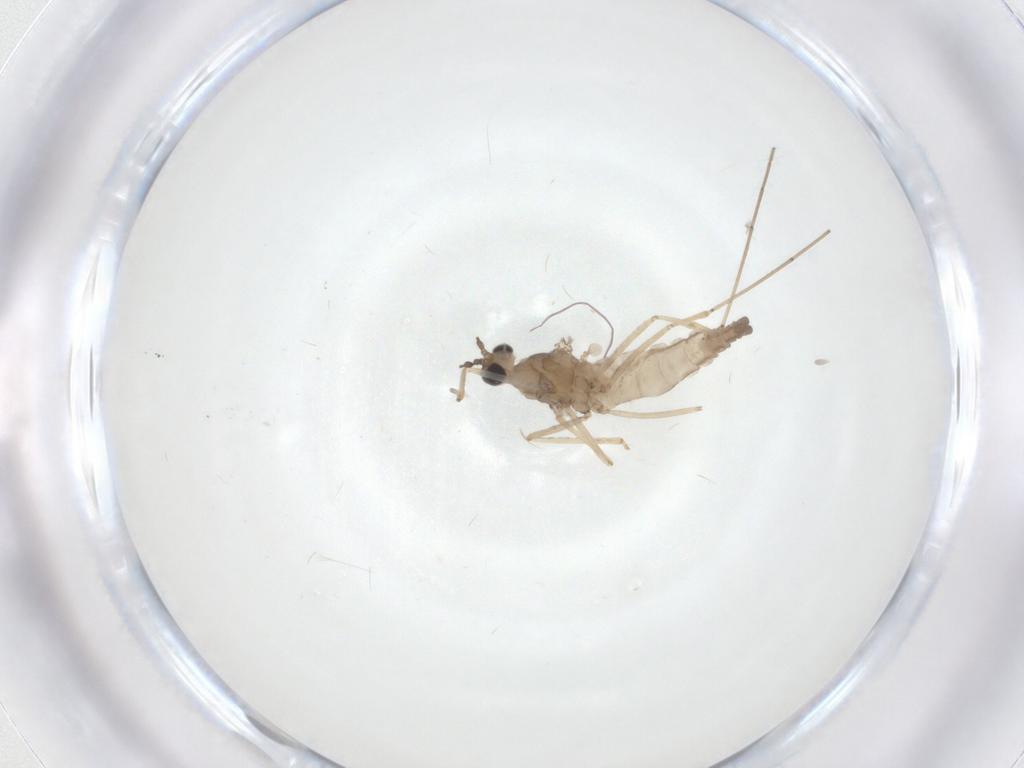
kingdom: Animalia
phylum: Arthropoda
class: Insecta
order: Diptera
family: Cecidomyiidae
